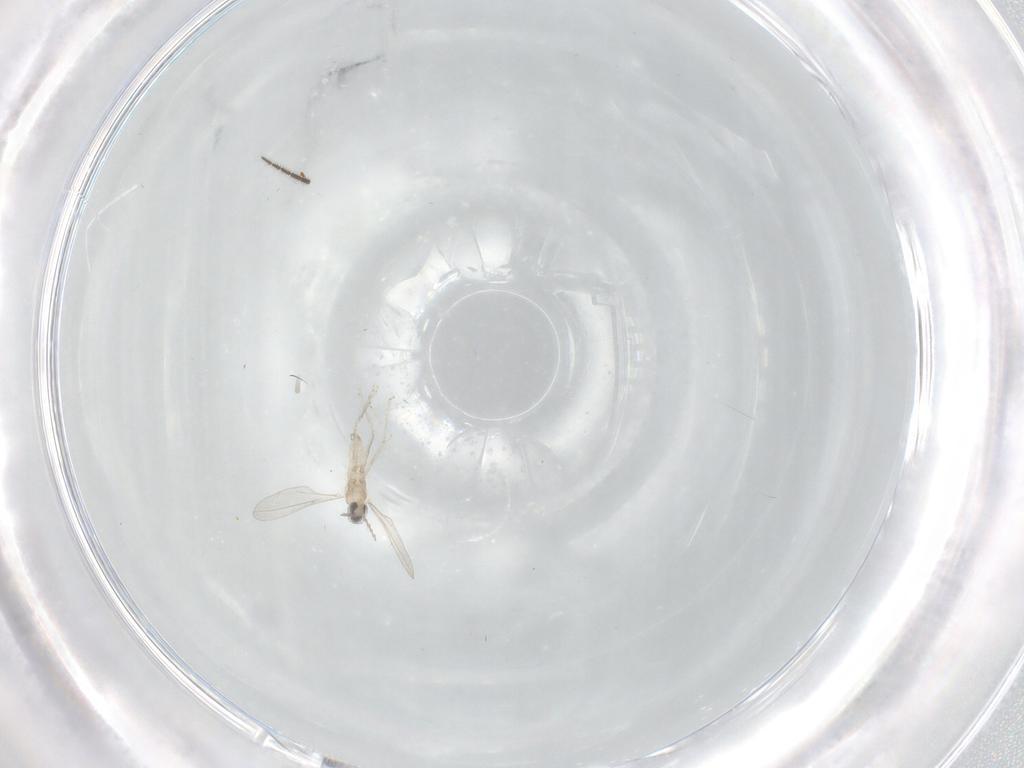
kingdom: Animalia
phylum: Arthropoda
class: Insecta
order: Diptera
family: Cecidomyiidae
